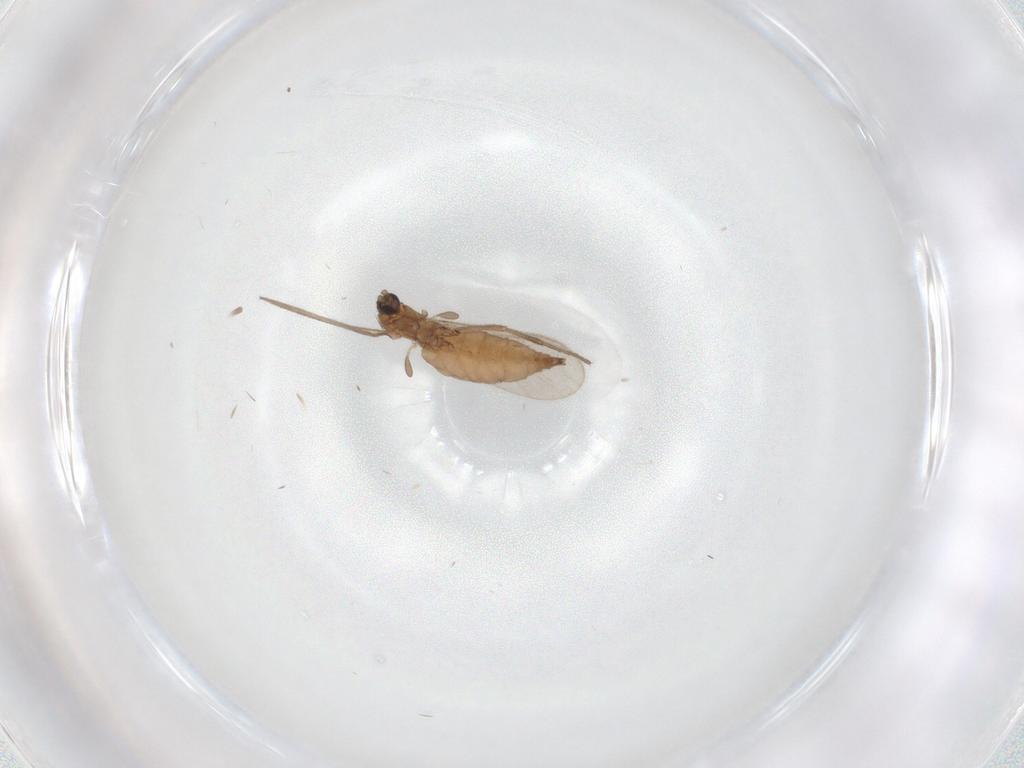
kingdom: Animalia
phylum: Arthropoda
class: Insecta
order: Diptera
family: Sciaridae
